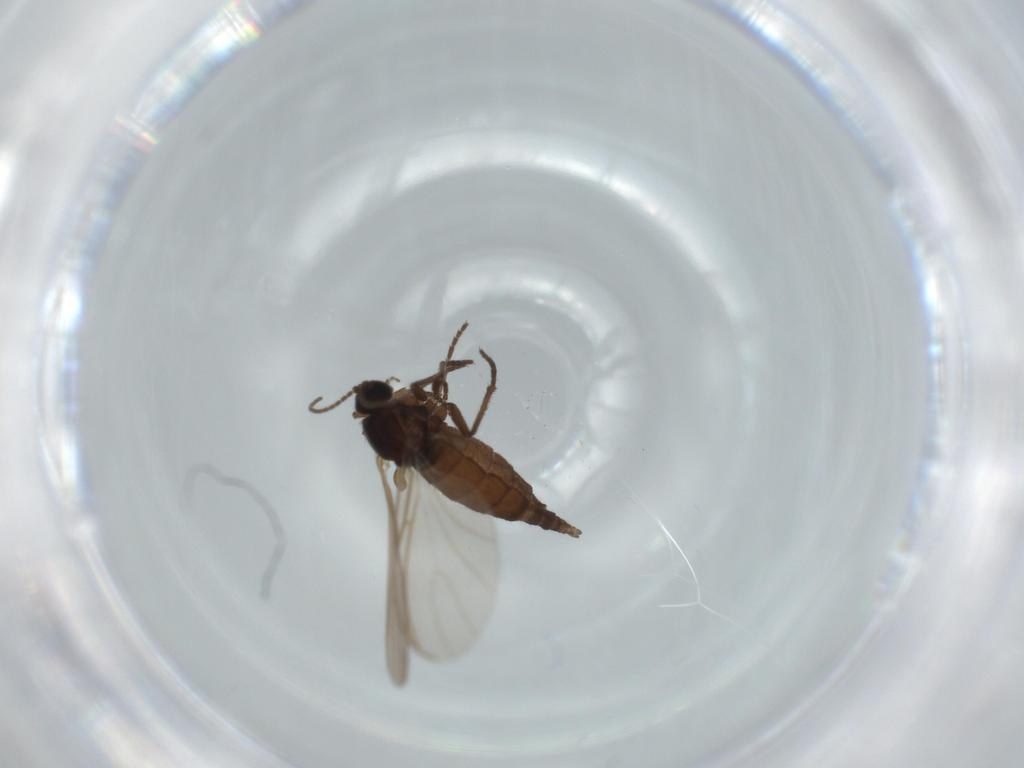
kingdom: Animalia
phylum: Arthropoda
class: Insecta
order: Diptera
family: Sciaridae
